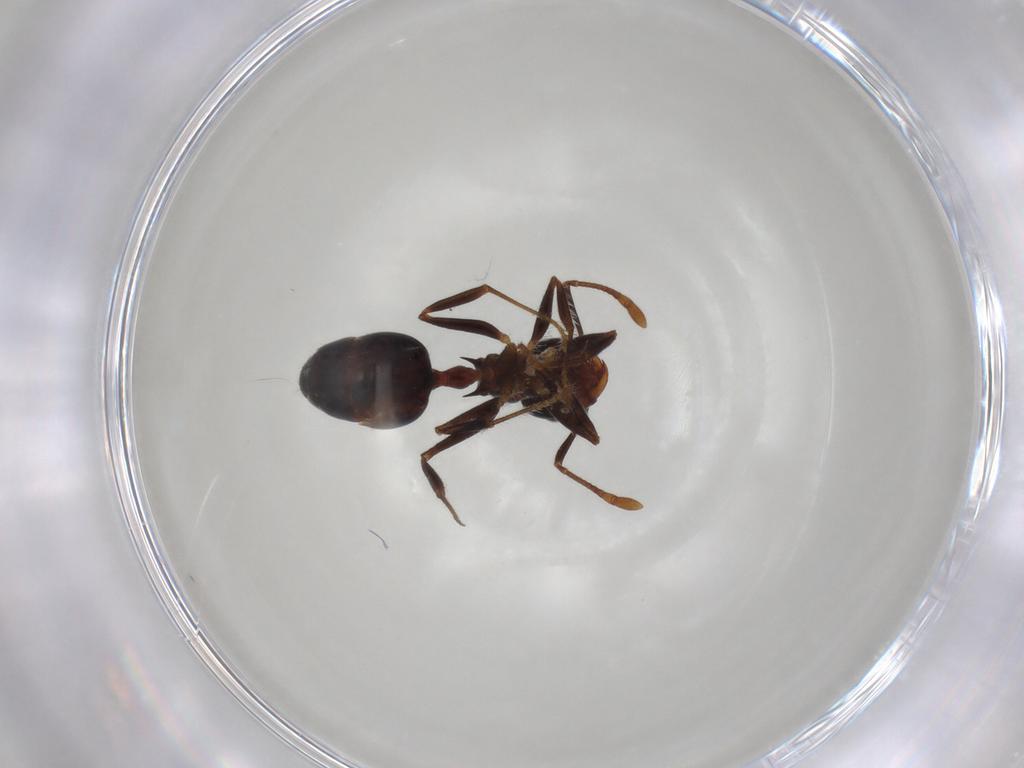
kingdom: Animalia
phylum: Arthropoda
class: Insecta
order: Hymenoptera
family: Formicidae
